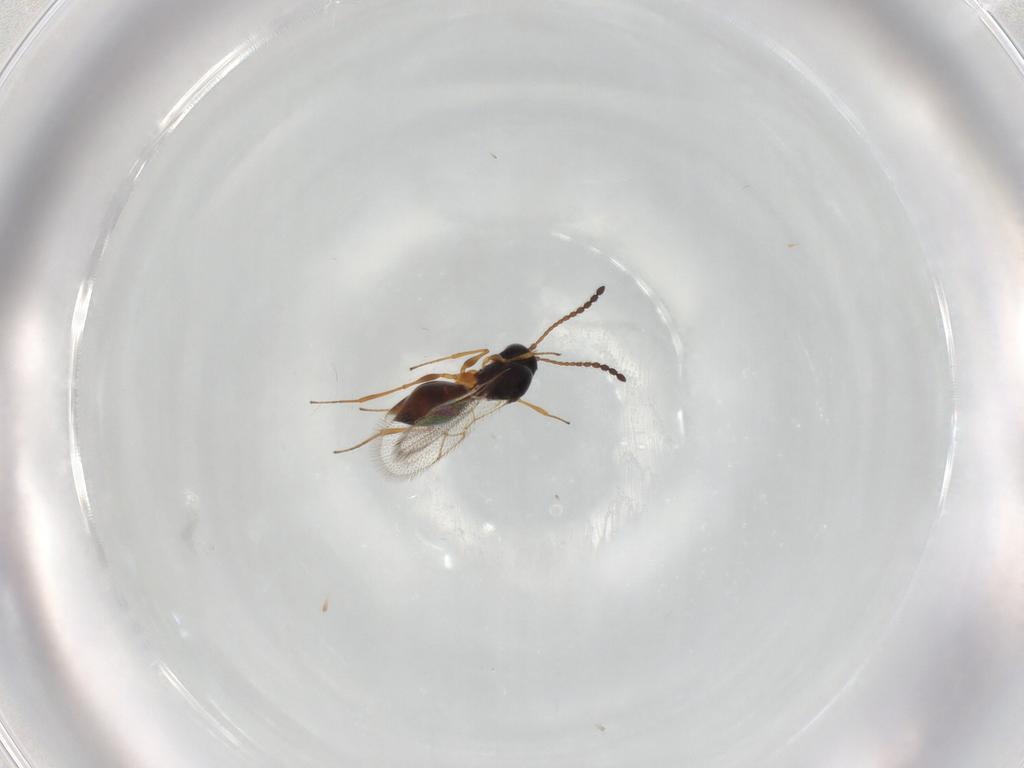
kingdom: Animalia
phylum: Arthropoda
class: Insecta
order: Hymenoptera
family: Figitidae
